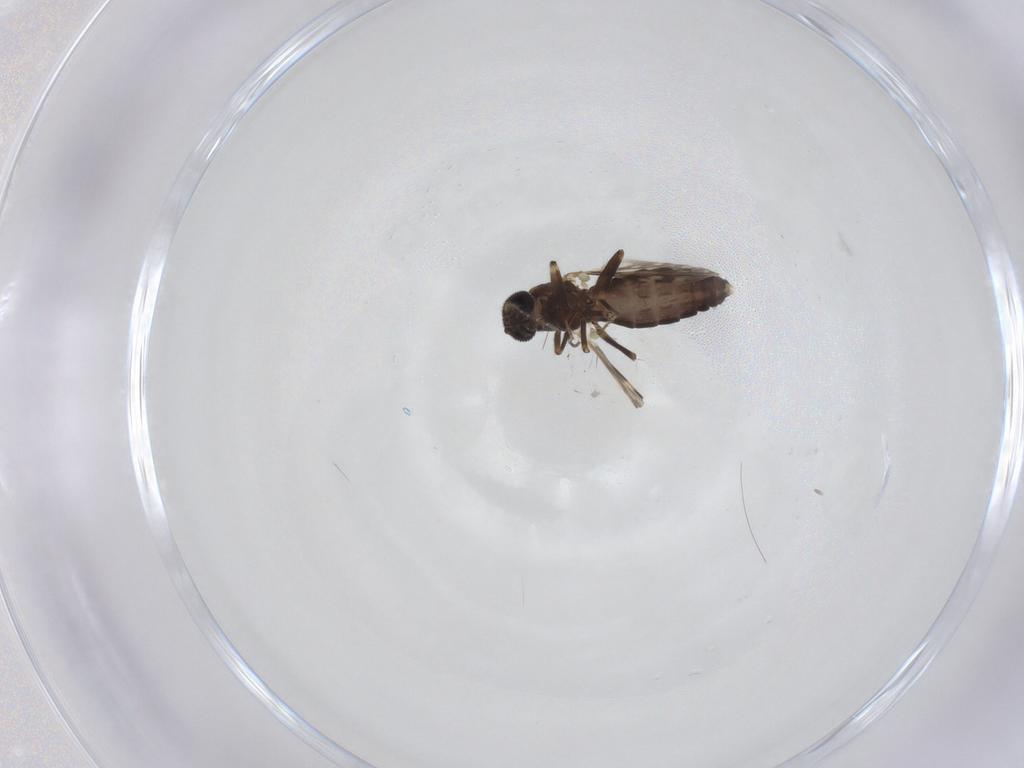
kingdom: Animalia
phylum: Arthropoda
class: Insecta
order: Diptera
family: Ceratopogonidae
